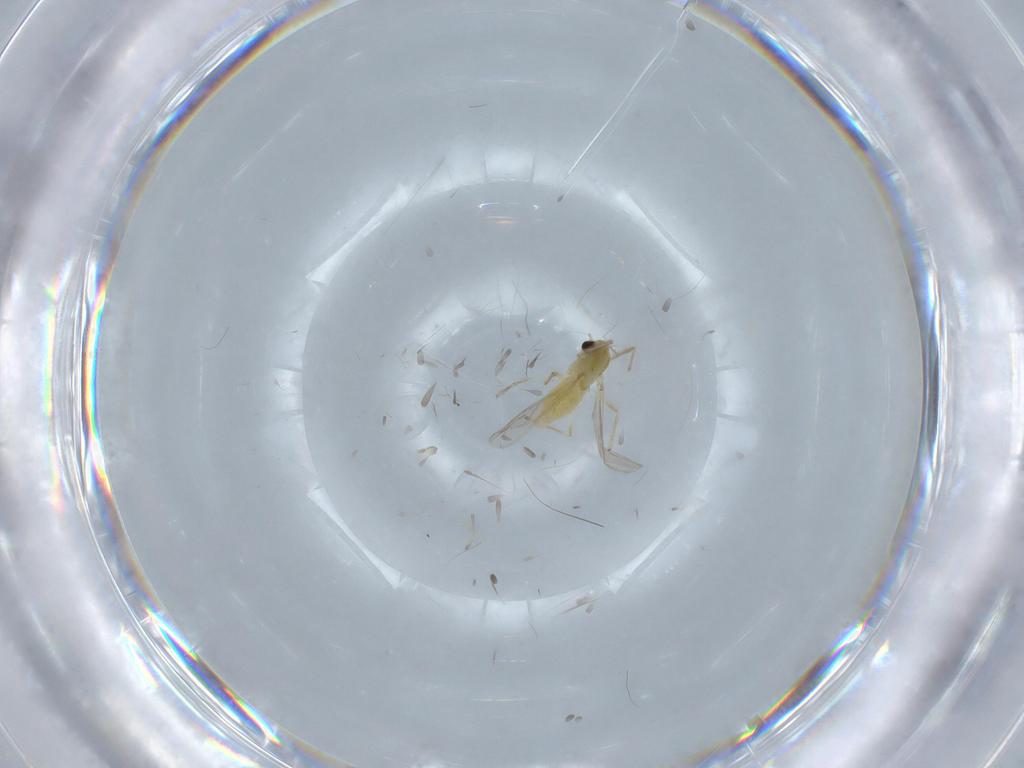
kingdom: Animalia
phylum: Arthropoda
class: Insecta
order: Diptera
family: Chironomidae
